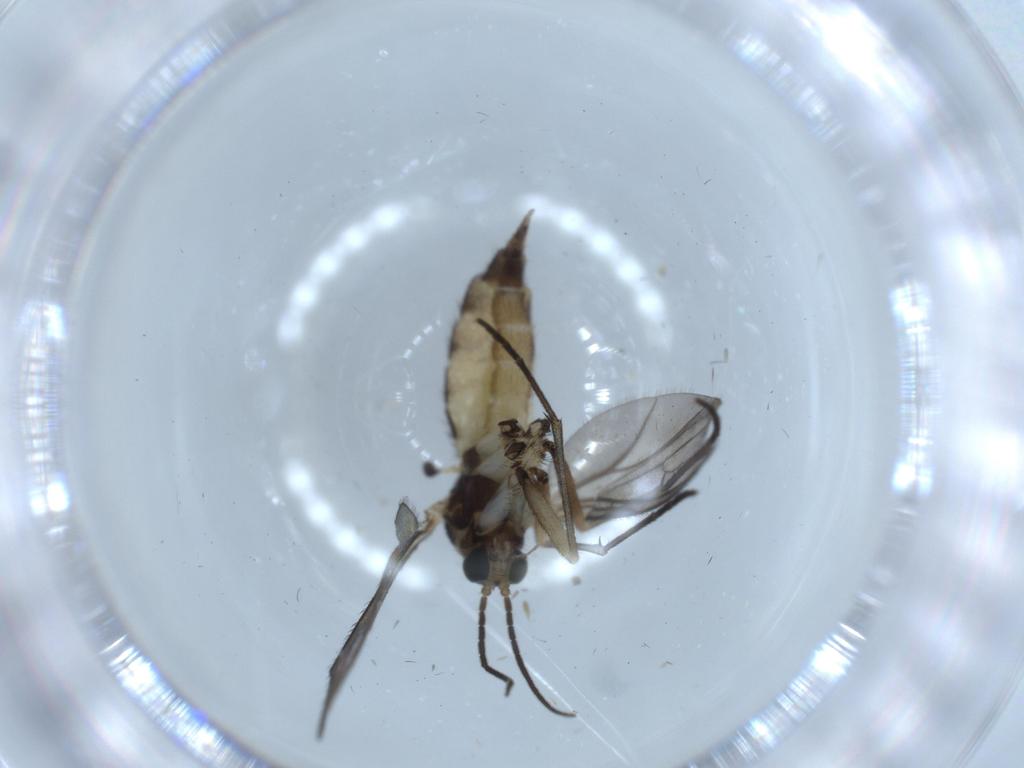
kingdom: Animalia
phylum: Arthropoda
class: Insecta
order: Diptera
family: Sciaridae
